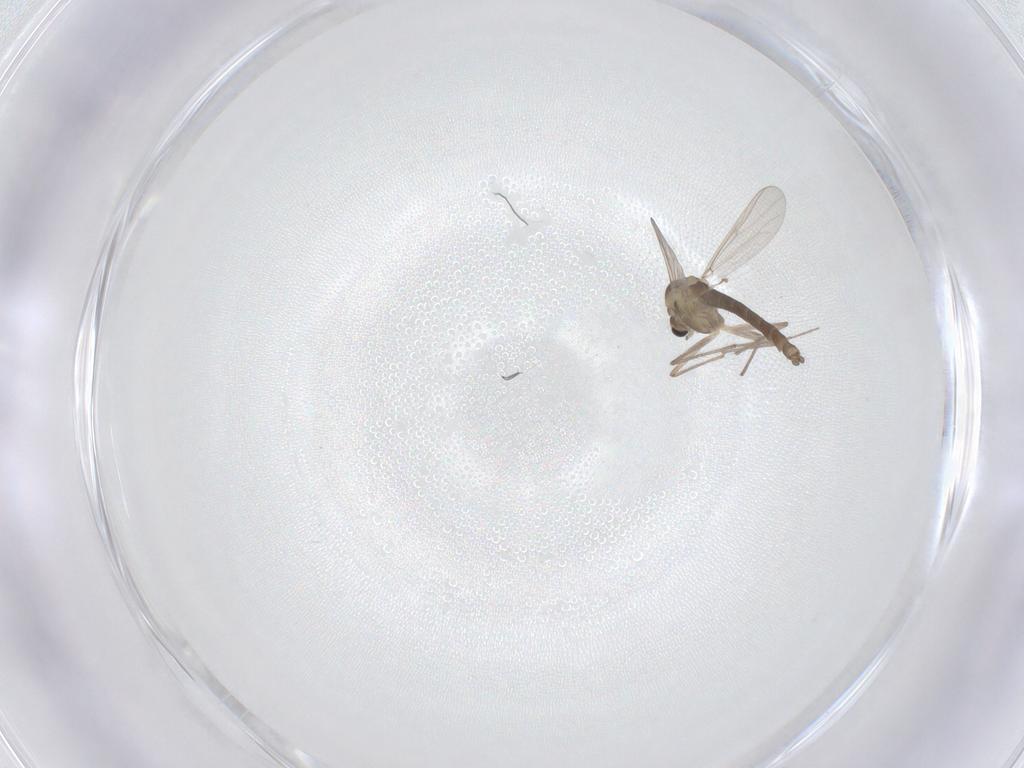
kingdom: Animalia
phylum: Arthropoda
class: Insecta
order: Diptera
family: Chironomidae
